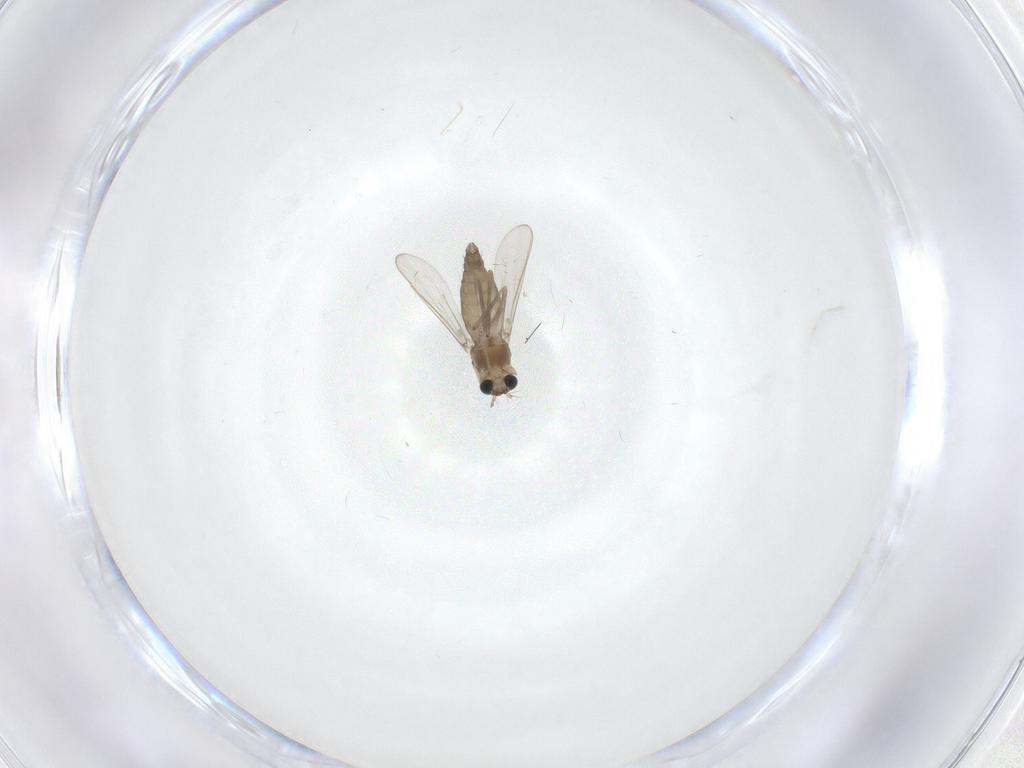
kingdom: Animalia
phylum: Arthropoda
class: Insecta
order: Diptera
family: Chironomidae
